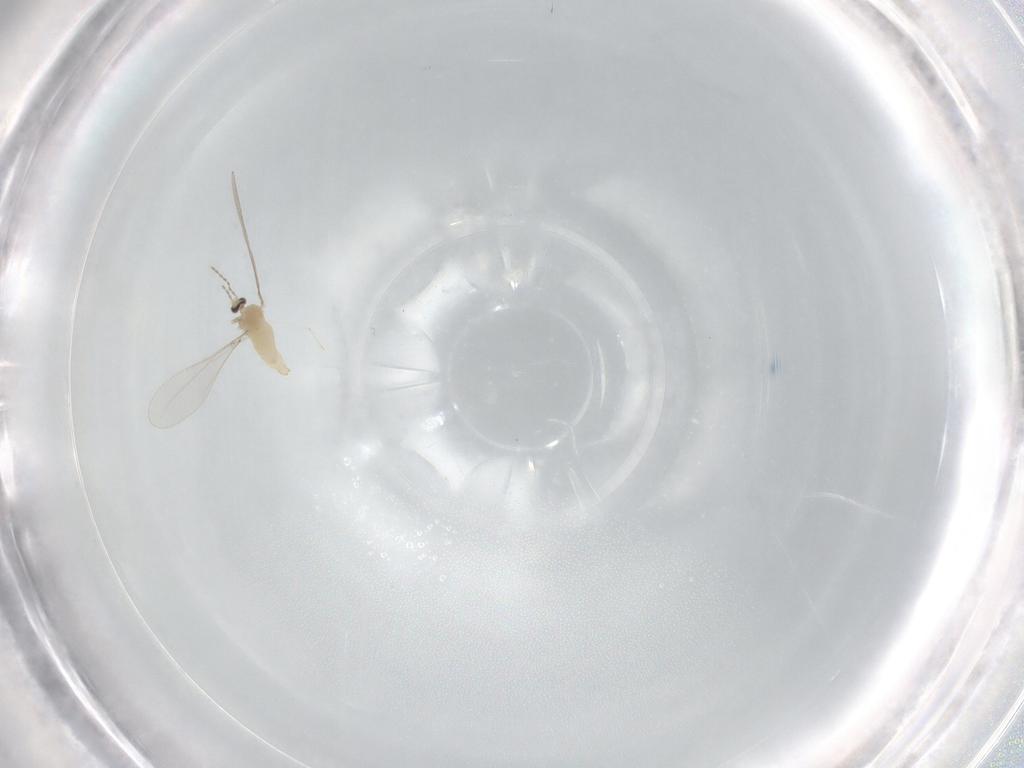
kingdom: Animalia
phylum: Arthropoda
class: Insecta
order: Diptera
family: Cecidomyiidae
